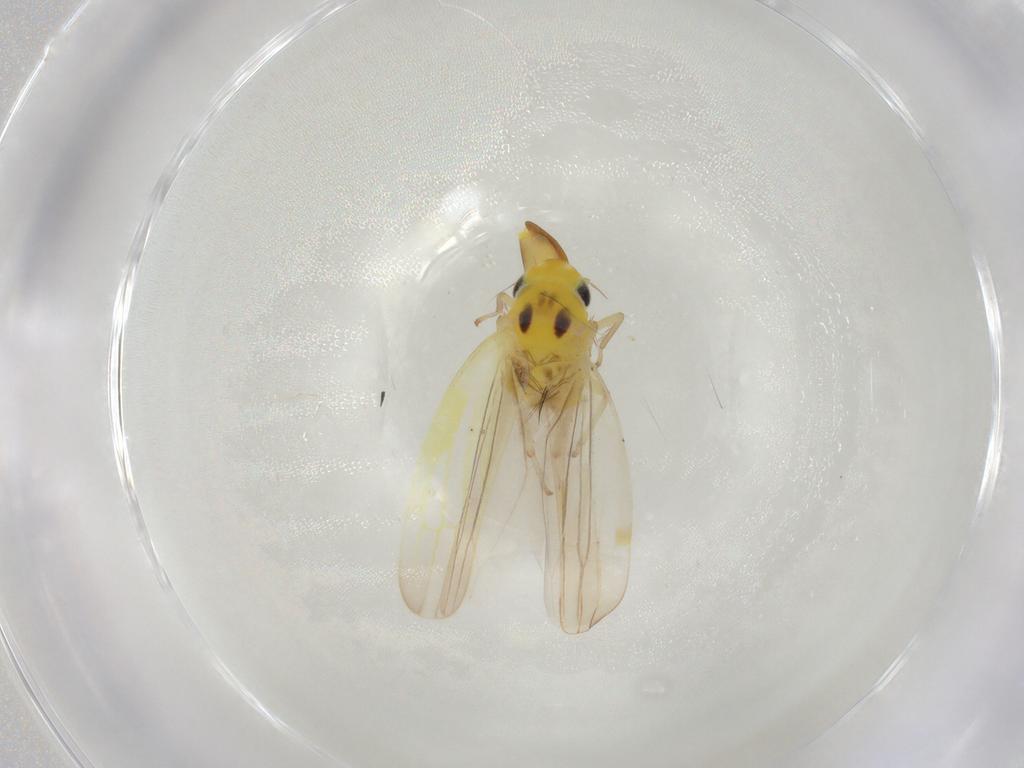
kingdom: Animalia
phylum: Arthropoda
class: Insecta
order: Hemiptera
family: Cicadellidae
